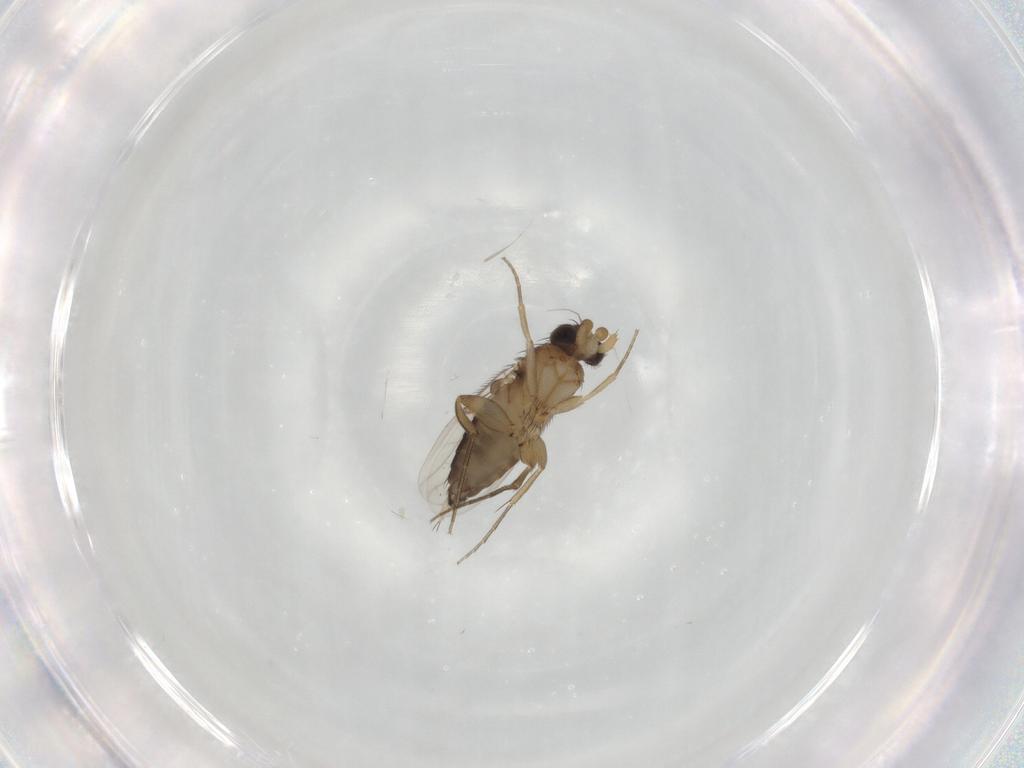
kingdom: Animalia
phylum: Arthropoda
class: Insecta
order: Diptera
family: Phoridae
